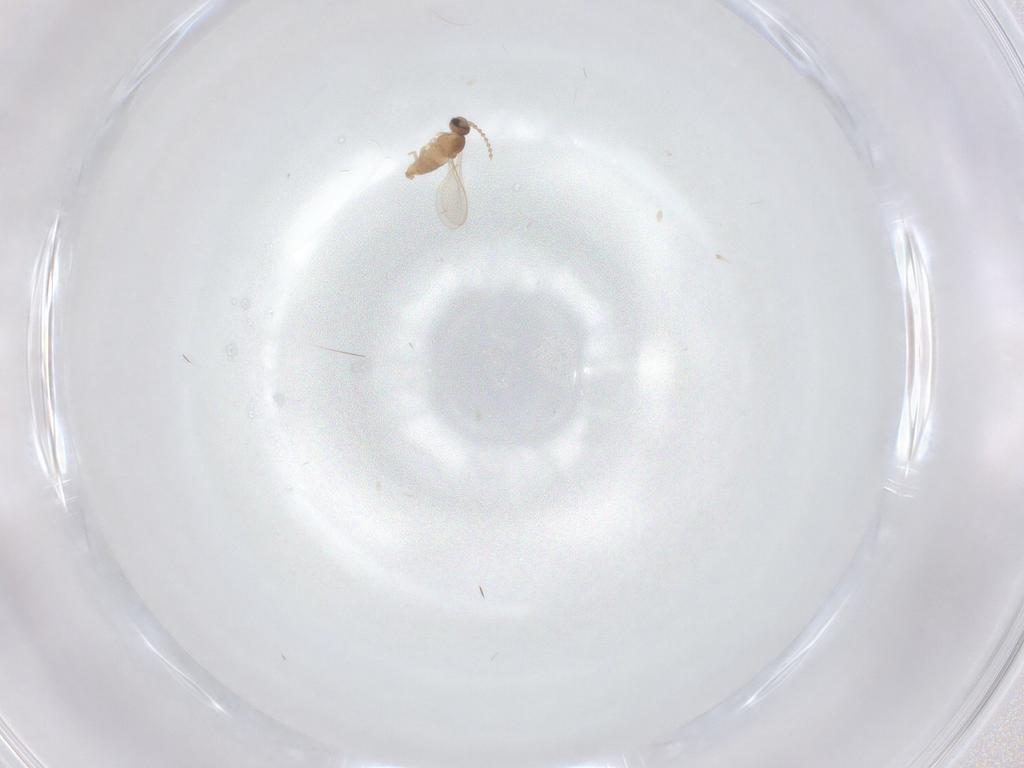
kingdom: Animalia
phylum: Arthropoda
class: Insecta
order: Diptera
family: Cecidomyiidae
